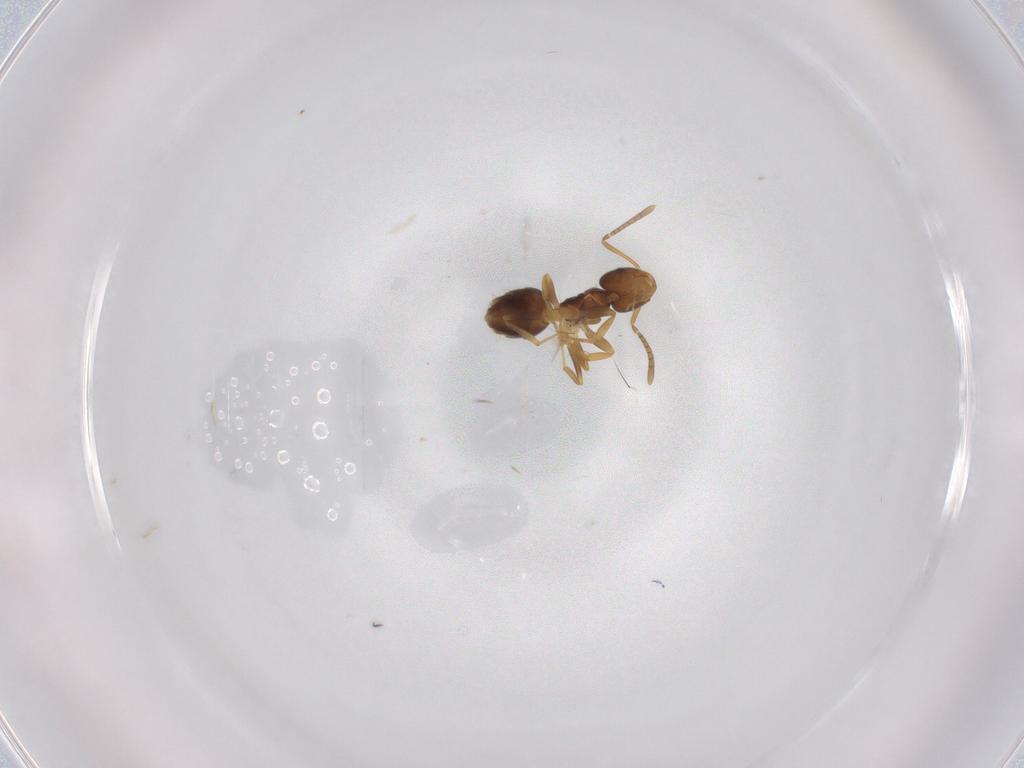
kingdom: Animalia
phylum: Arthropoda
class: Insecta
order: Hymenoptera
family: Formicidae
